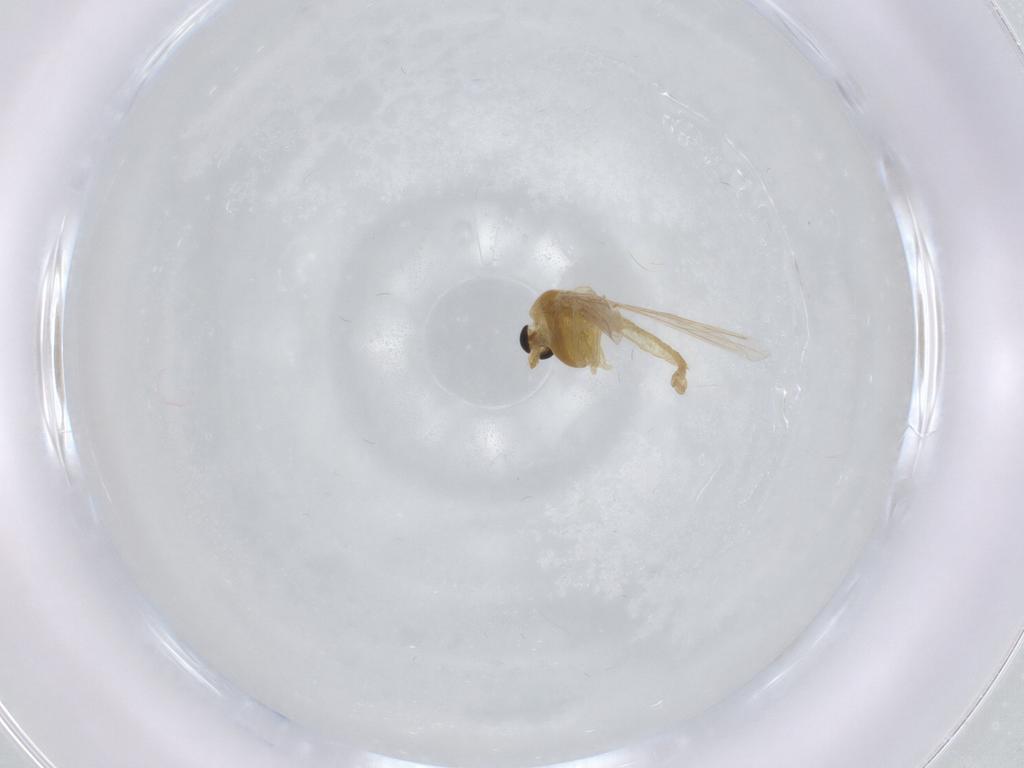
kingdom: Animalia
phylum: Arthropoda
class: Insecta
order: Diptera
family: Chironomidae
